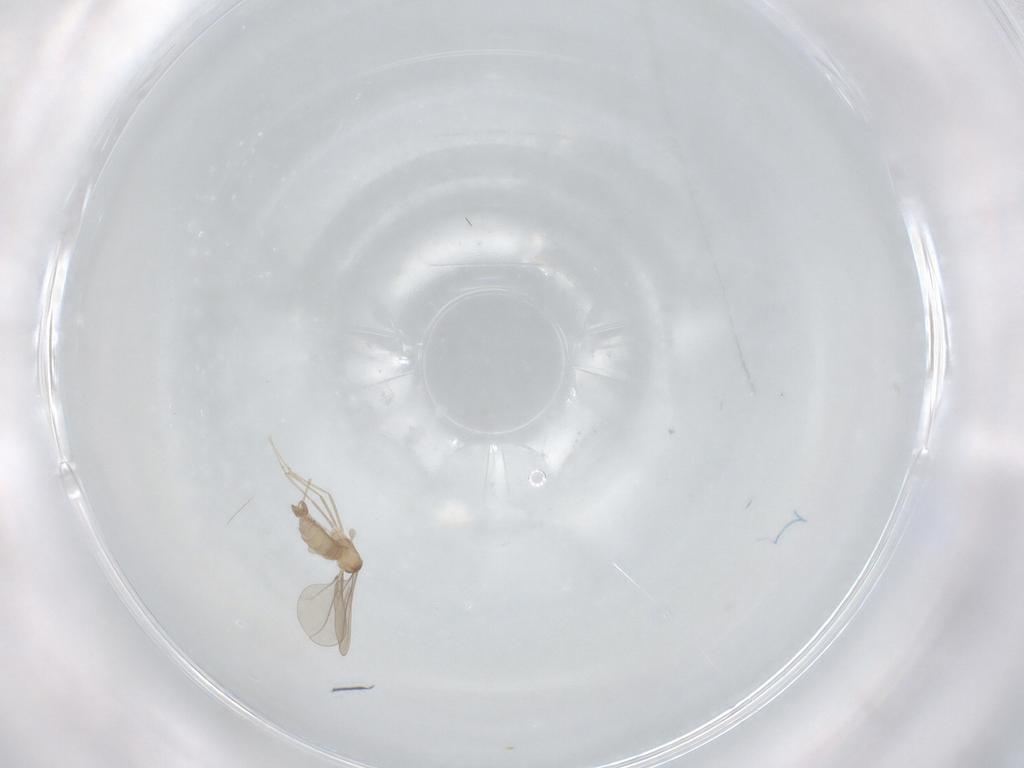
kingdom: Animalia
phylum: Arthropoda
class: Insecta
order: Diptera
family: Cecidomyiidae
